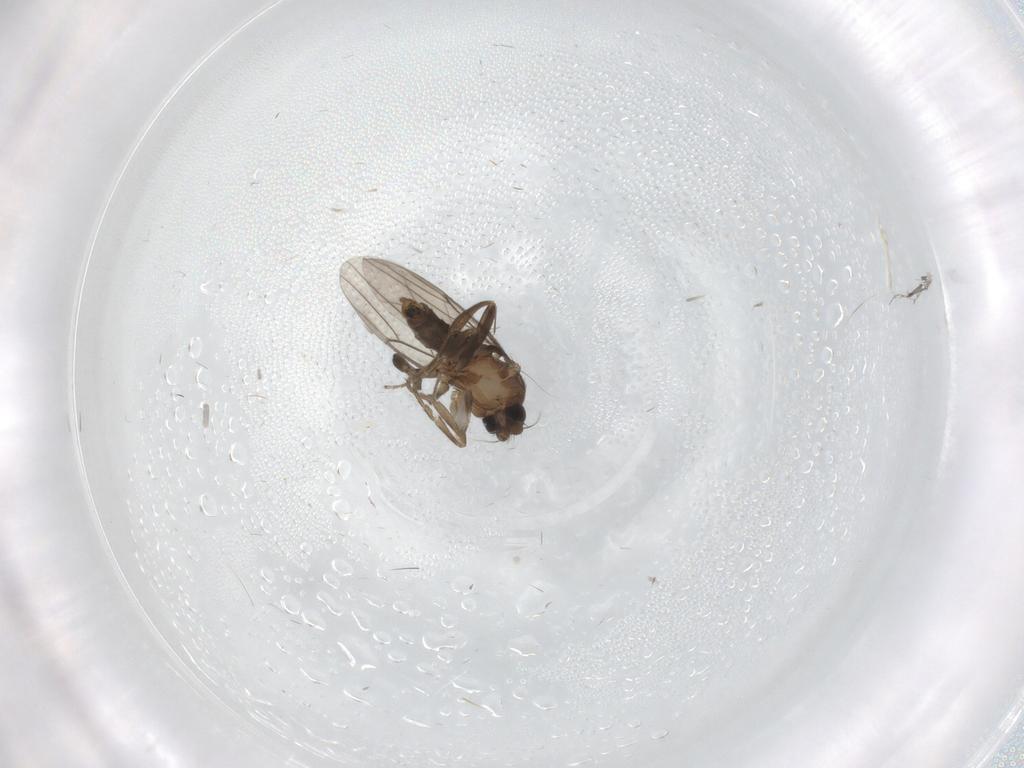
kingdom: Animalia
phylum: Arthropoda
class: Insecta
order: Diptera
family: Phoridae
